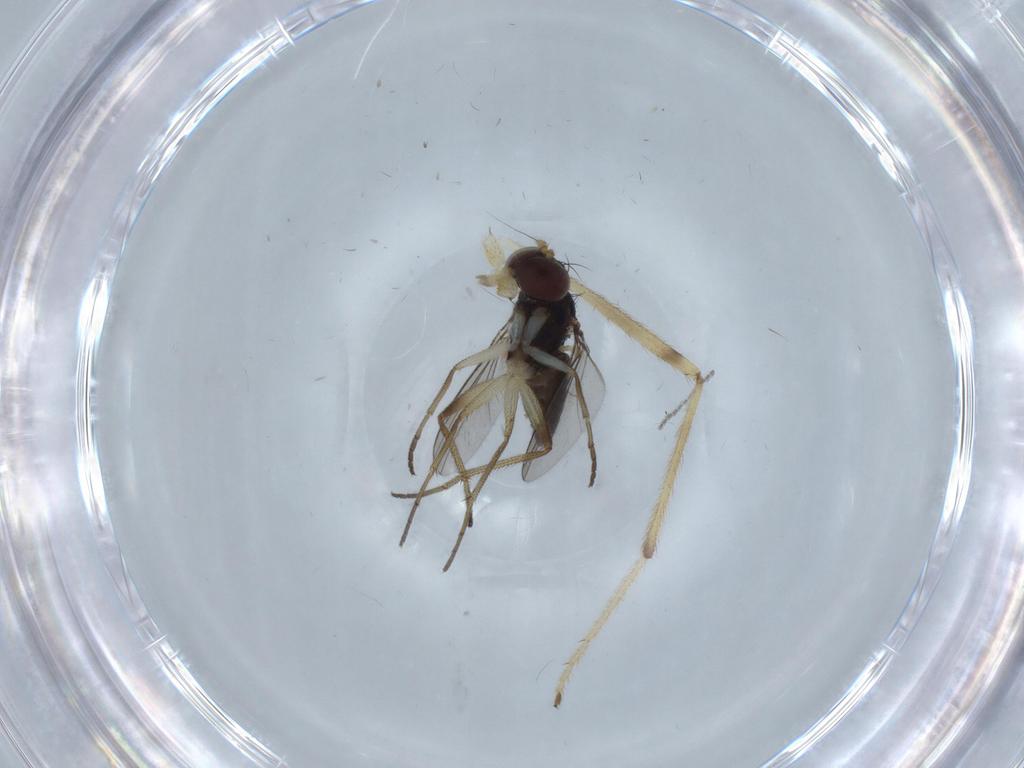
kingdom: Animalia
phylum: Arthropoda
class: Insecta
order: Diptera
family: Dolichopodidae
